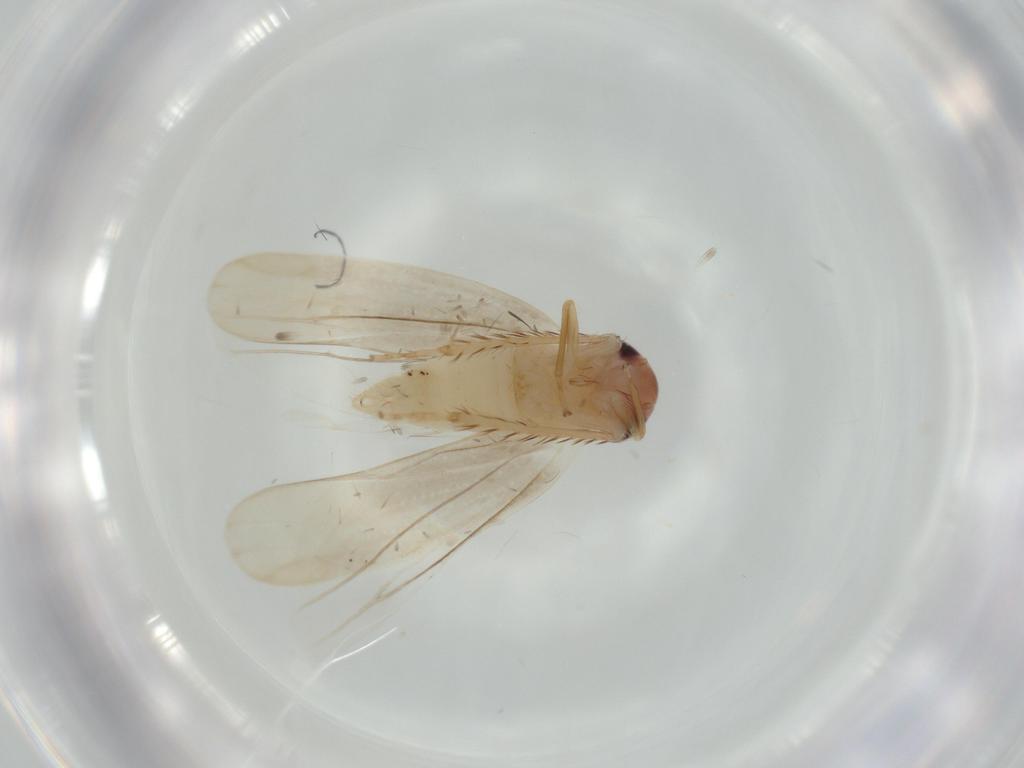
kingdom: Animalia
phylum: Arthropoda
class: Insecta
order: Hemiptera
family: Cicadellidae
